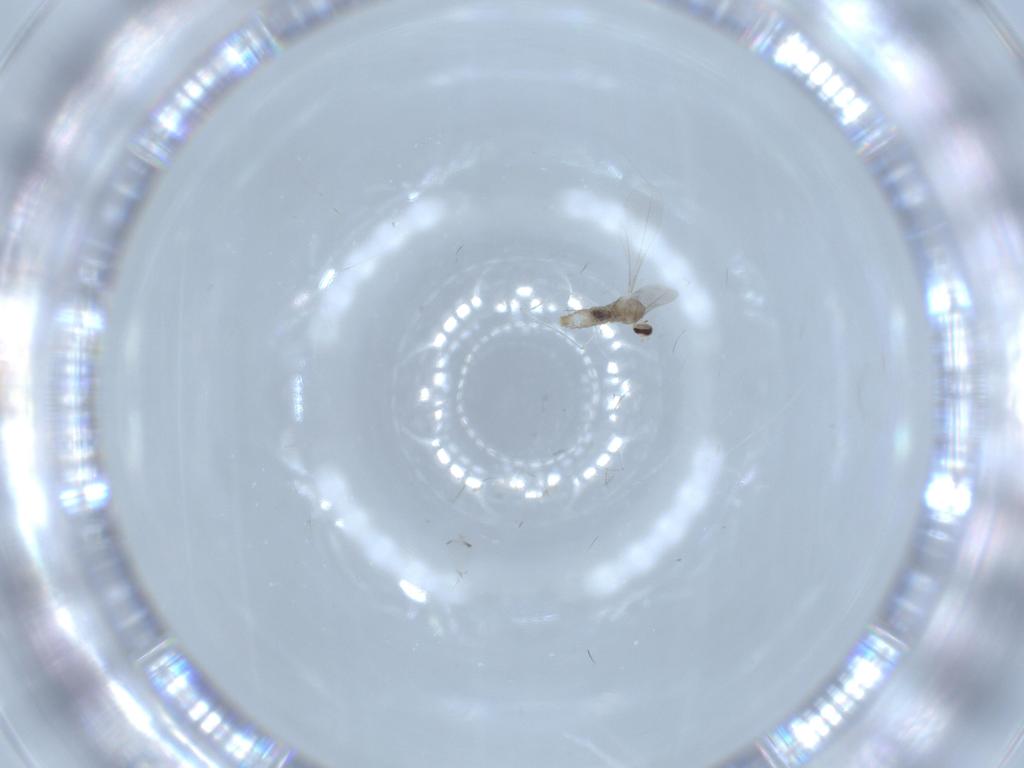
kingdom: Animalia
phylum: Arthropoda
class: Insecta
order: Diptera
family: Cecidomyiidae
